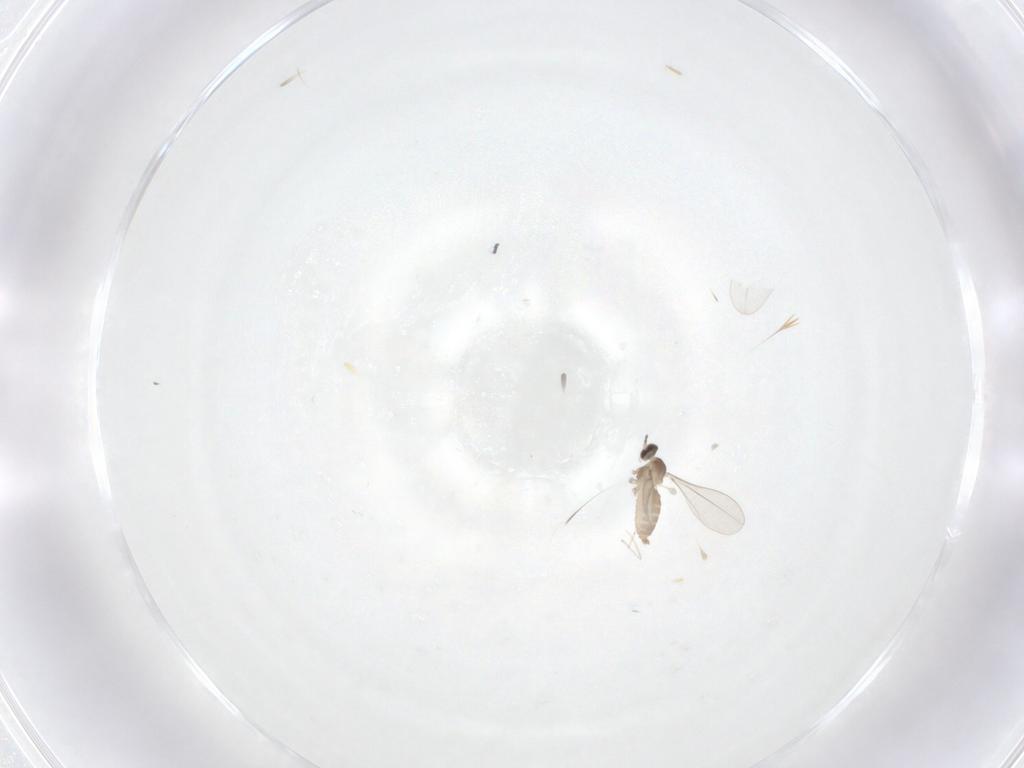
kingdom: Animalia
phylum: Arthropoda
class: Insecta
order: Diptera
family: Cecidomyiidae
